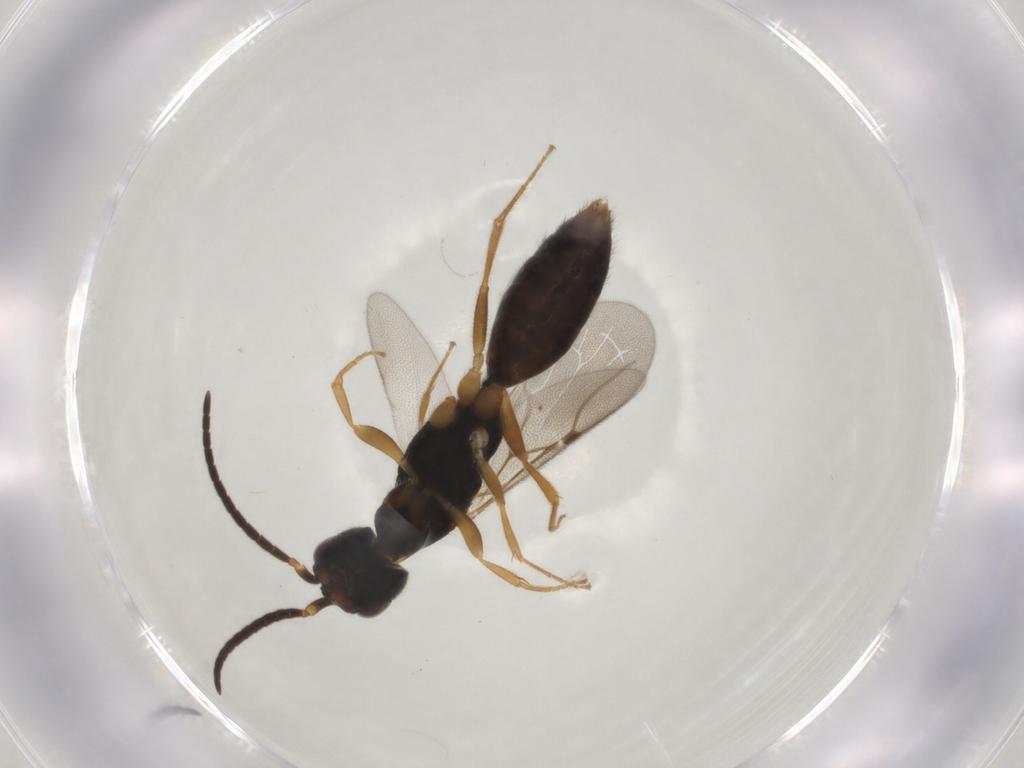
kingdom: Animalia
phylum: Arthropoda
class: Insecta
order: Hymenoptera
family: Bethylidae
